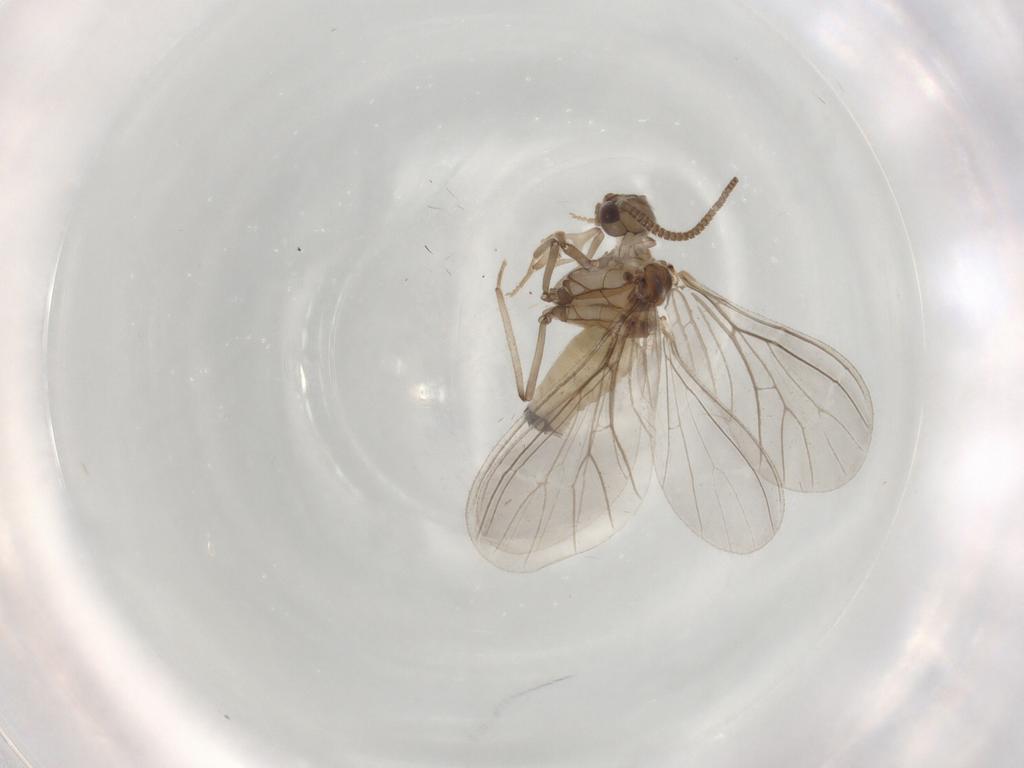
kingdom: Animalia
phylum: Arthropoda
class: Insecta
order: Neuroptera
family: Coniopterygidae
